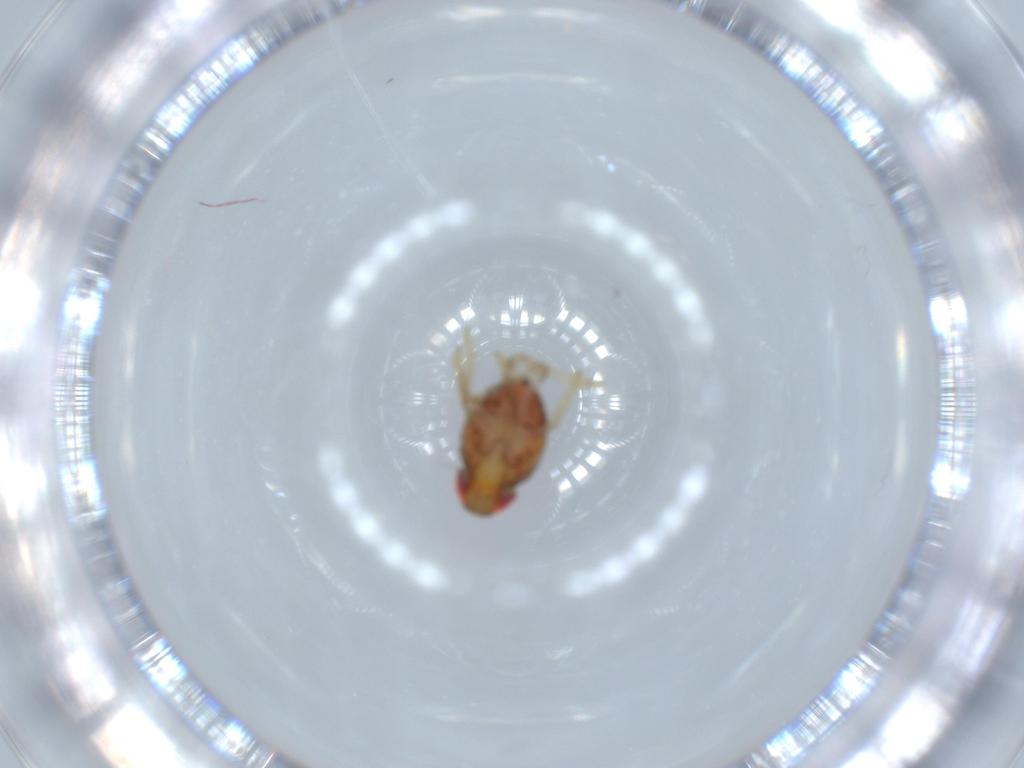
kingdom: Animalia
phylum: Arthropoda
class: Insecta
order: Hemiptera
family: Issidae
